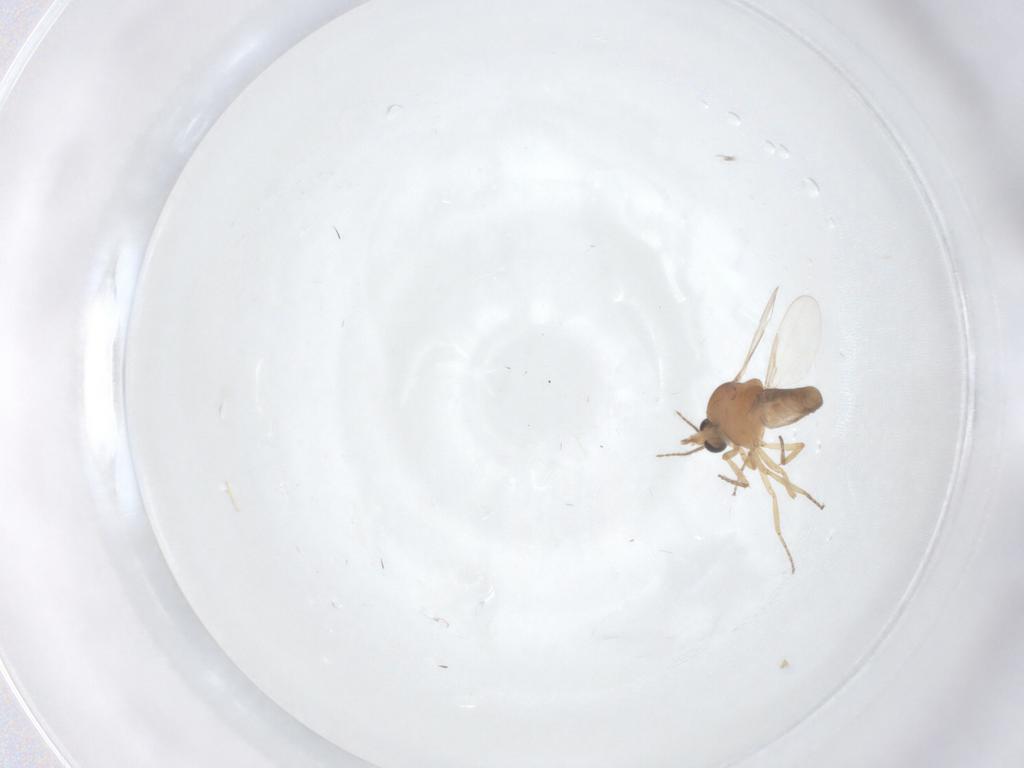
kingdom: Animalia
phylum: Arthropoda
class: Insecta
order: Diptera
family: Ceratopogonidae
